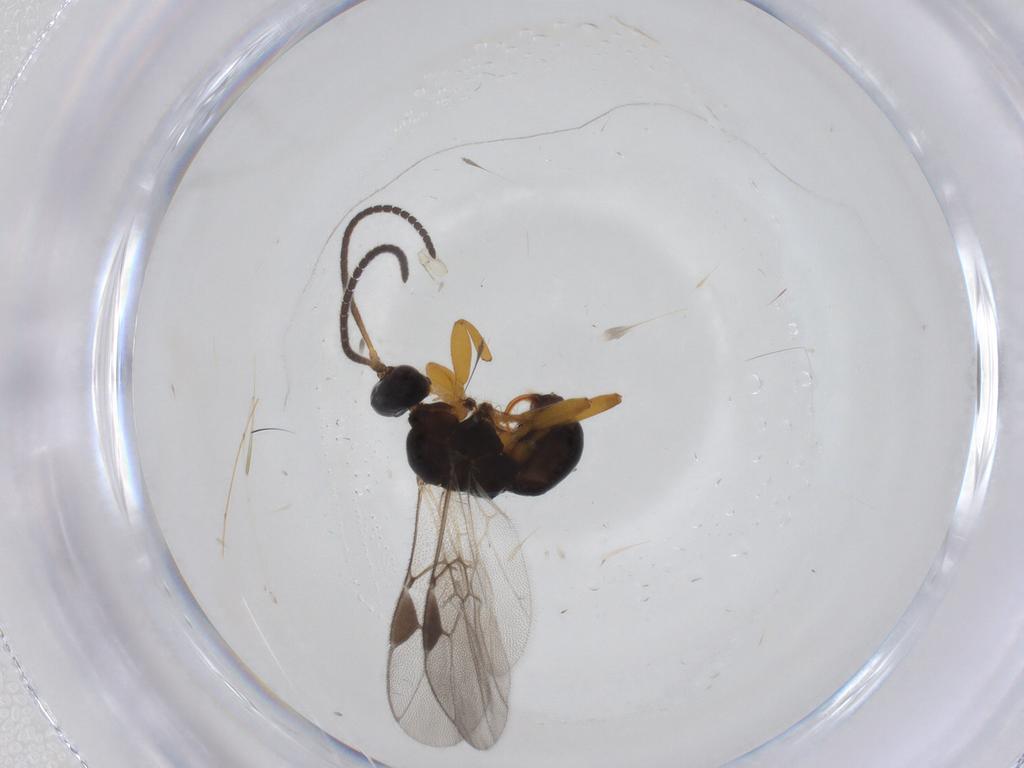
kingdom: Animalia
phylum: Arthropoda
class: Insecta
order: Hymenoptera
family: Braconidae
